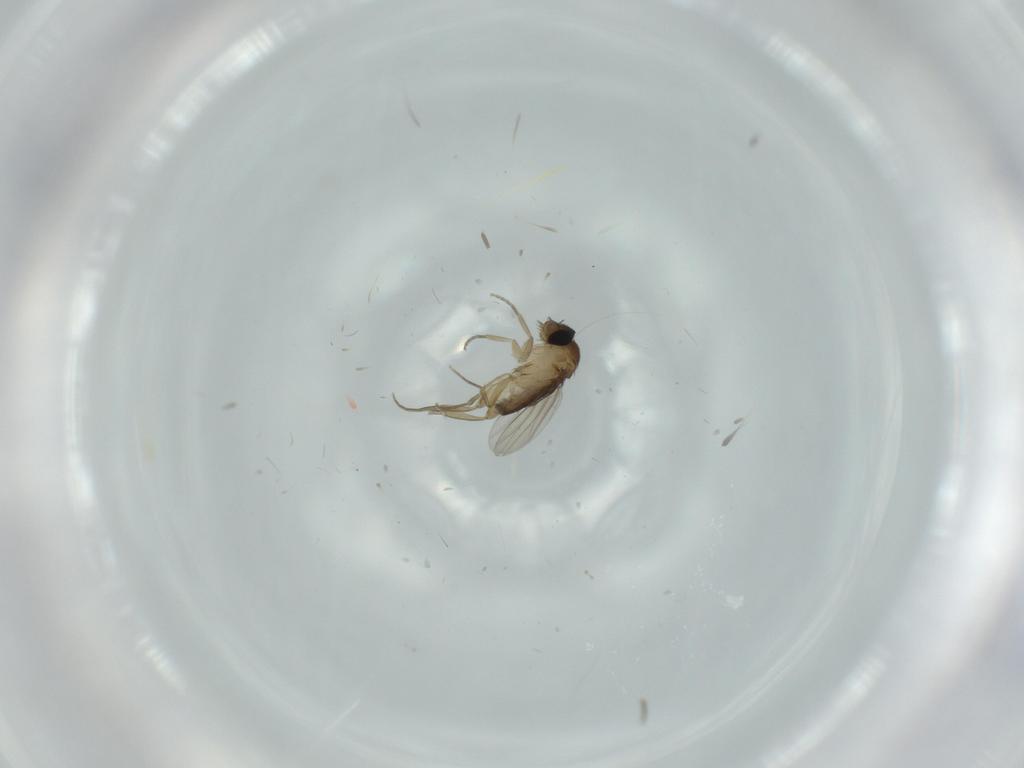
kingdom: Animalia
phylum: Arthropoda
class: Insecta
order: Diptera
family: Phoridae
